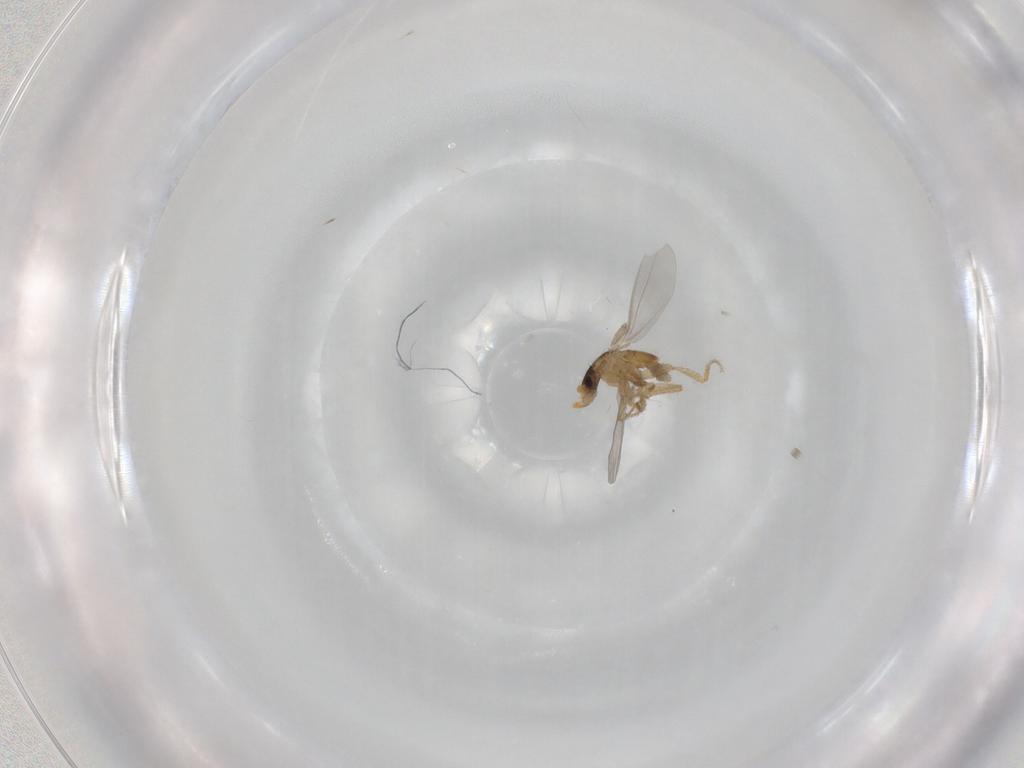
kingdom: Animalia
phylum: Arthropoda
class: Insecta
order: Diptera
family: Phoridae
